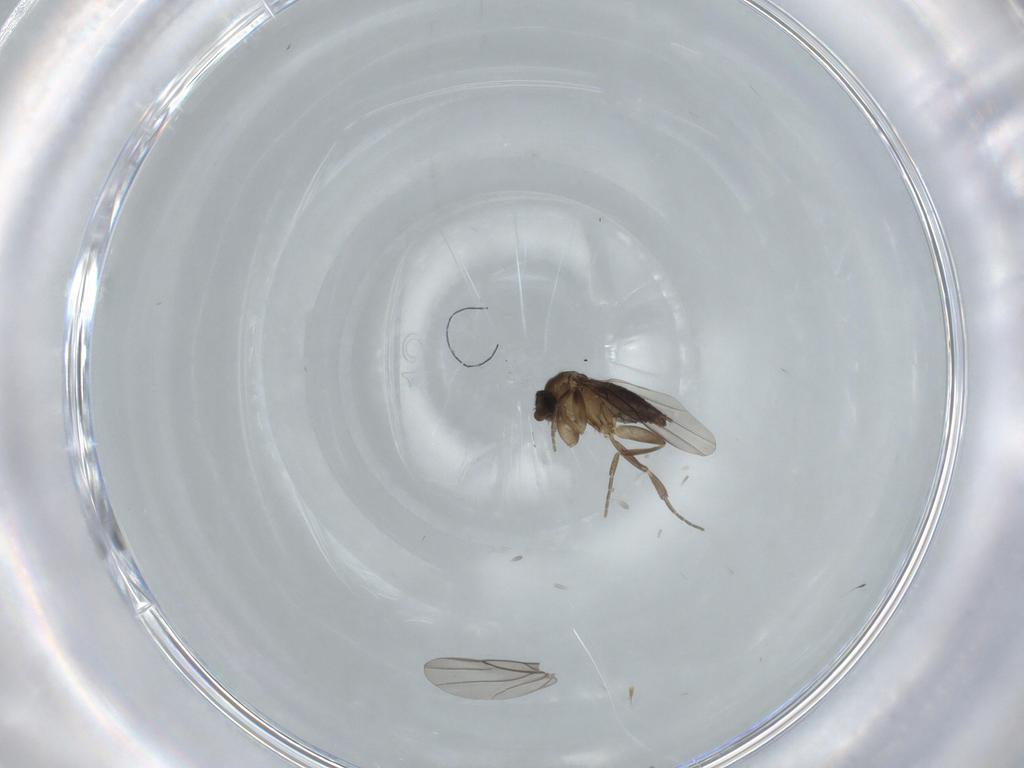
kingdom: Animalia
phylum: Arthropoda
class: Insecta
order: Diptera
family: Phoridae
